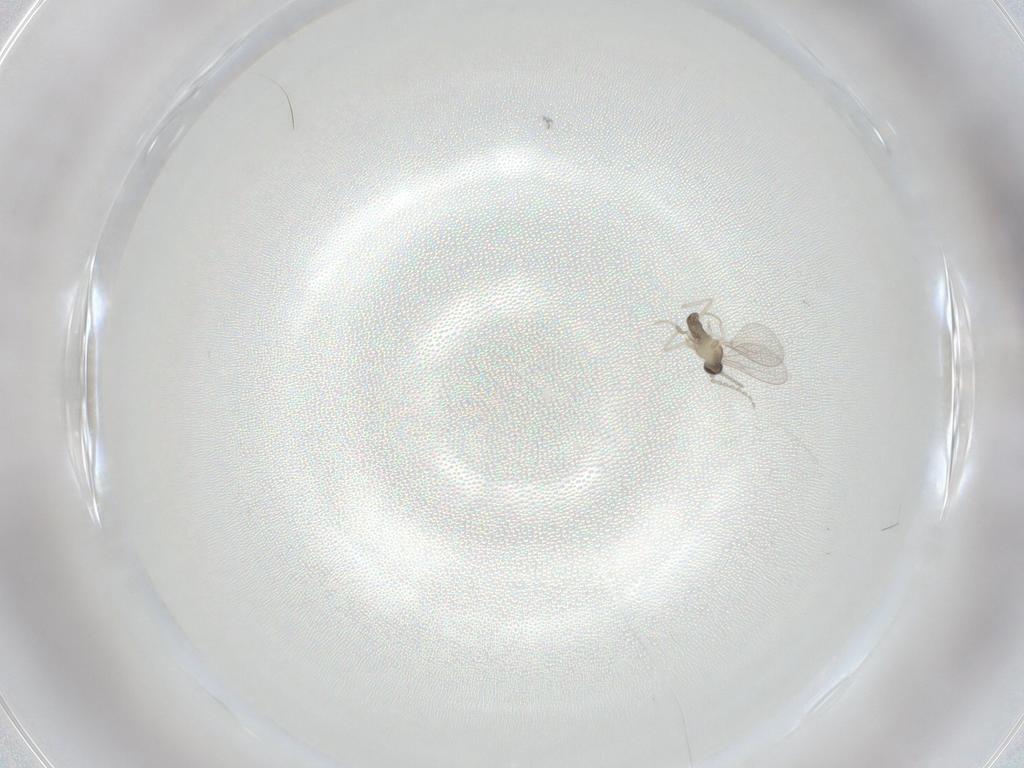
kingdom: Animalia
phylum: Arthropoda
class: Insecta
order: Diptera
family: Cecidomyiidae
